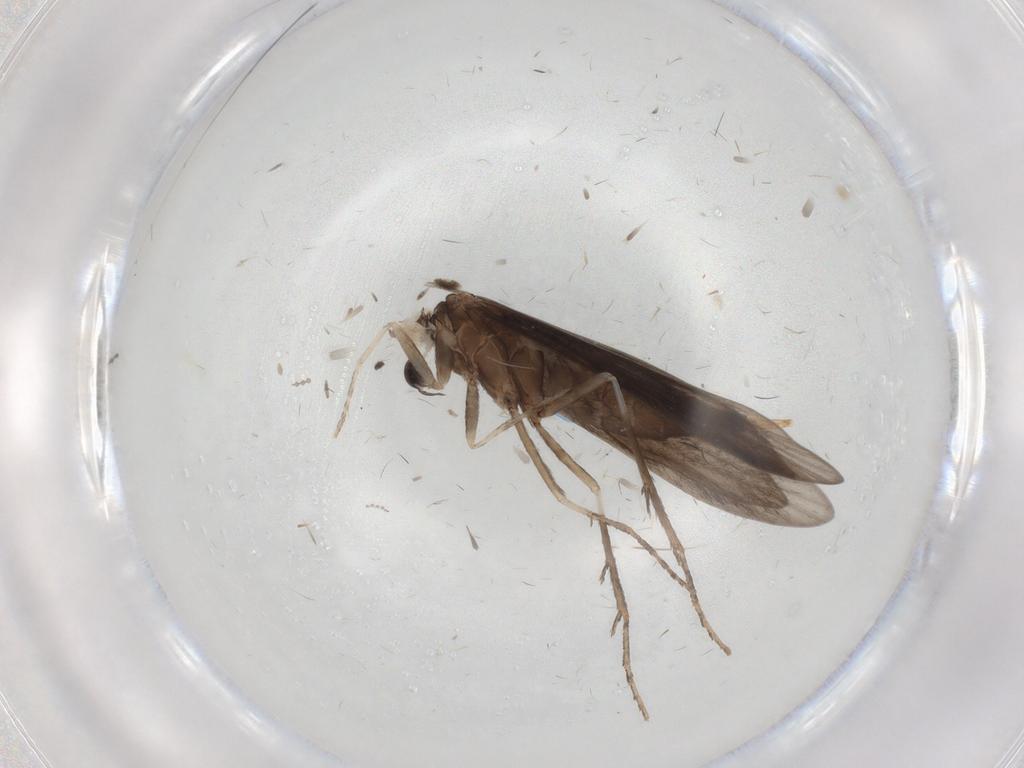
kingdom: Animalia
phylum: Arthropoda
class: Insecta
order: Trichoptera
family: Xiphocentronidae
